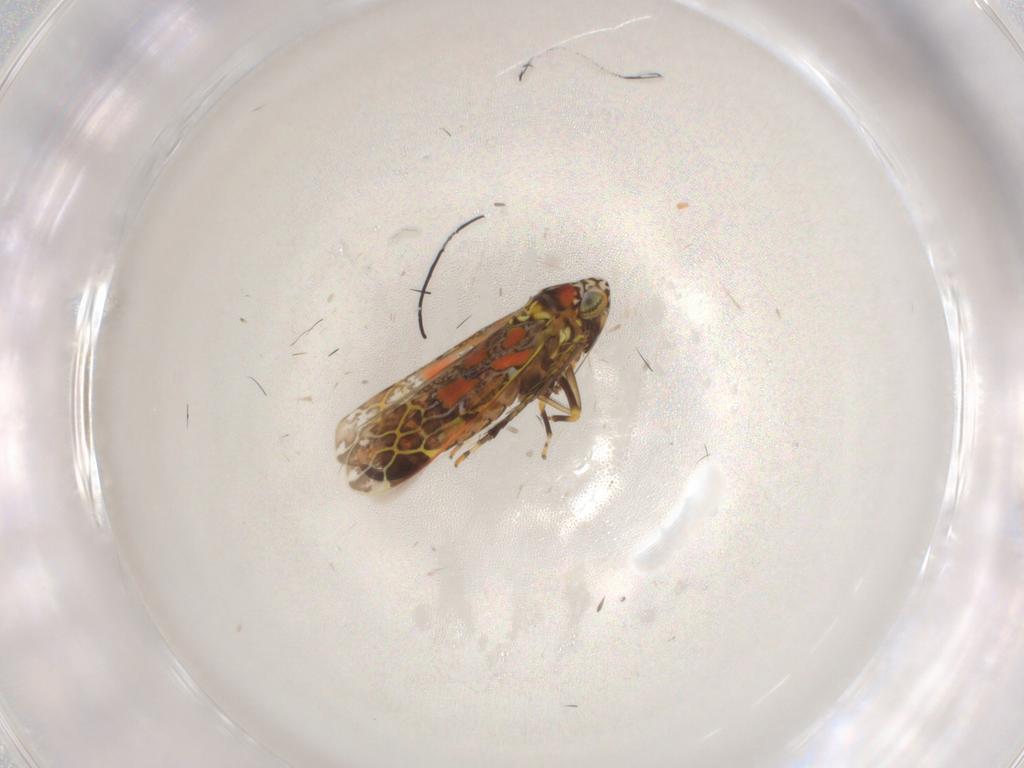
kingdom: Animalia
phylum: Arthropoda
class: Insecta
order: Hemiptera
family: Cicadellidae
